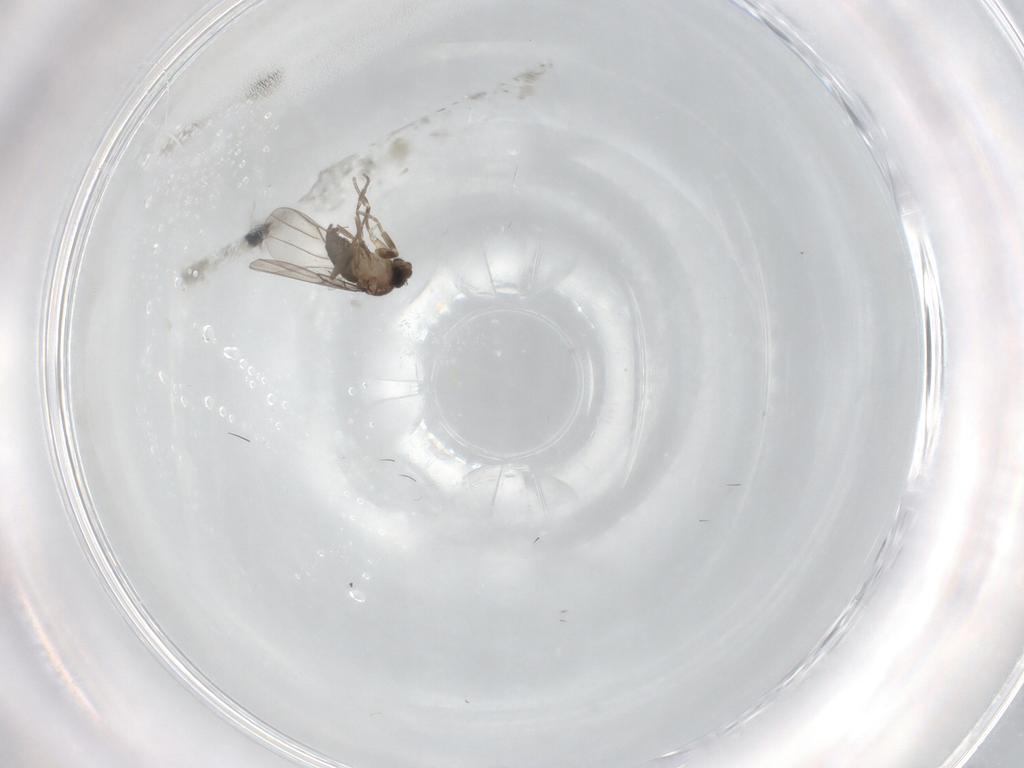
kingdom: Animalia
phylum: Arthropoda
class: Insecta
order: Diptera
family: Phoridae
